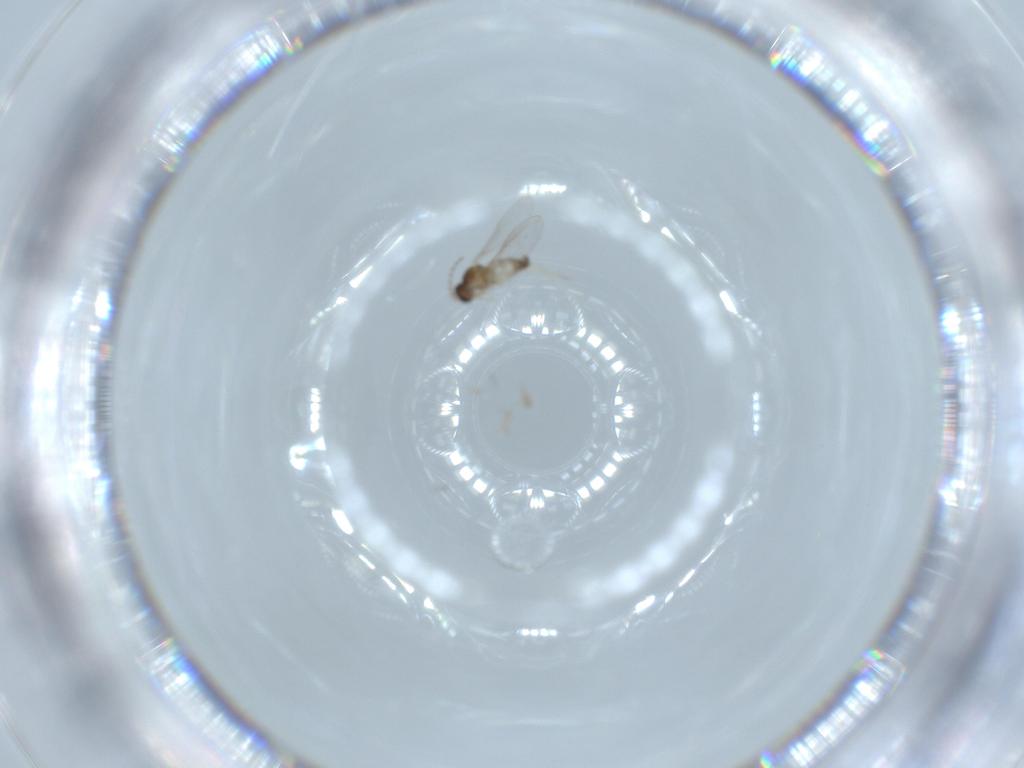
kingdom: Animalia
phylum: Arthropoda
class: Insecta
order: Diptera
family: Cecidomyiidae
